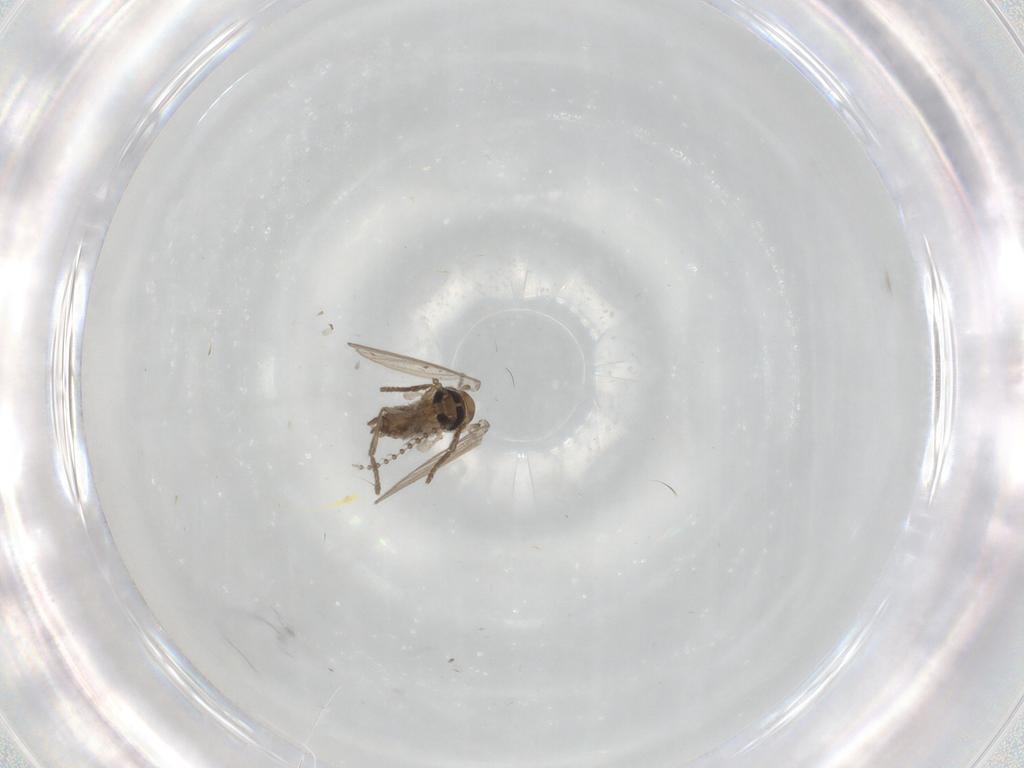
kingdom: Animalia
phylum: Arthropoda
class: Insecta
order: Diptera
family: Psychodidae
